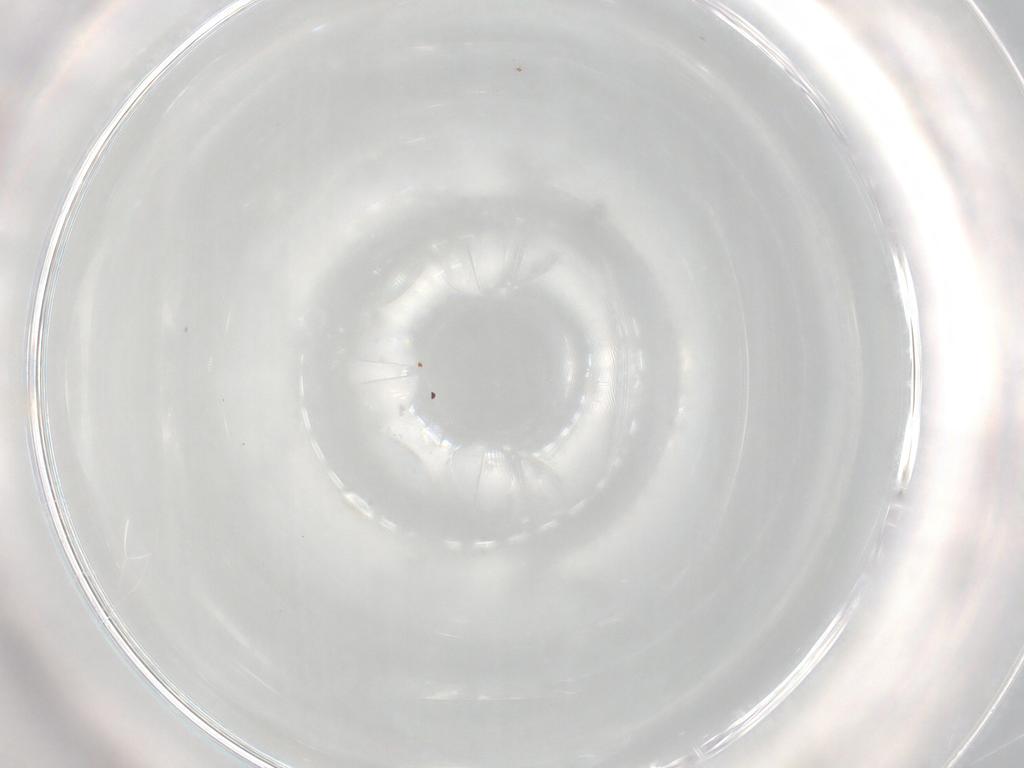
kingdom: Animalia
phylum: Arthropoda
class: Arachnida
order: Trombidiformes
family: Stigmaeidae
